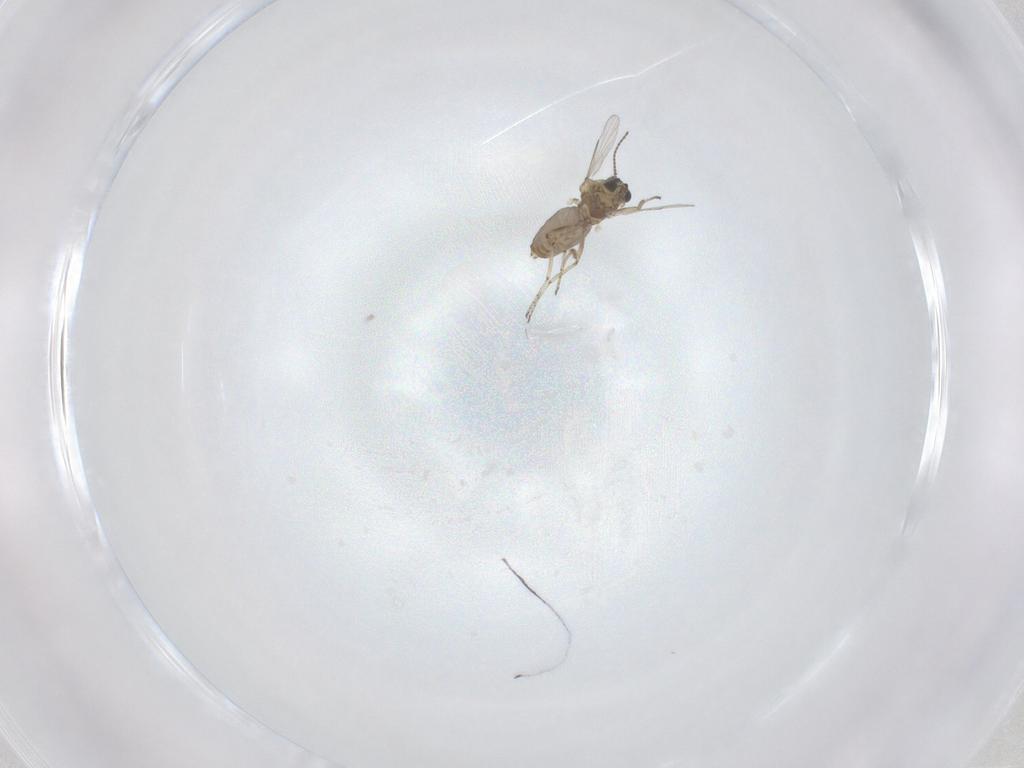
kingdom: Animalia
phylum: Arthropoda
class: Insecta
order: Diptera
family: Ceratopogonidae
